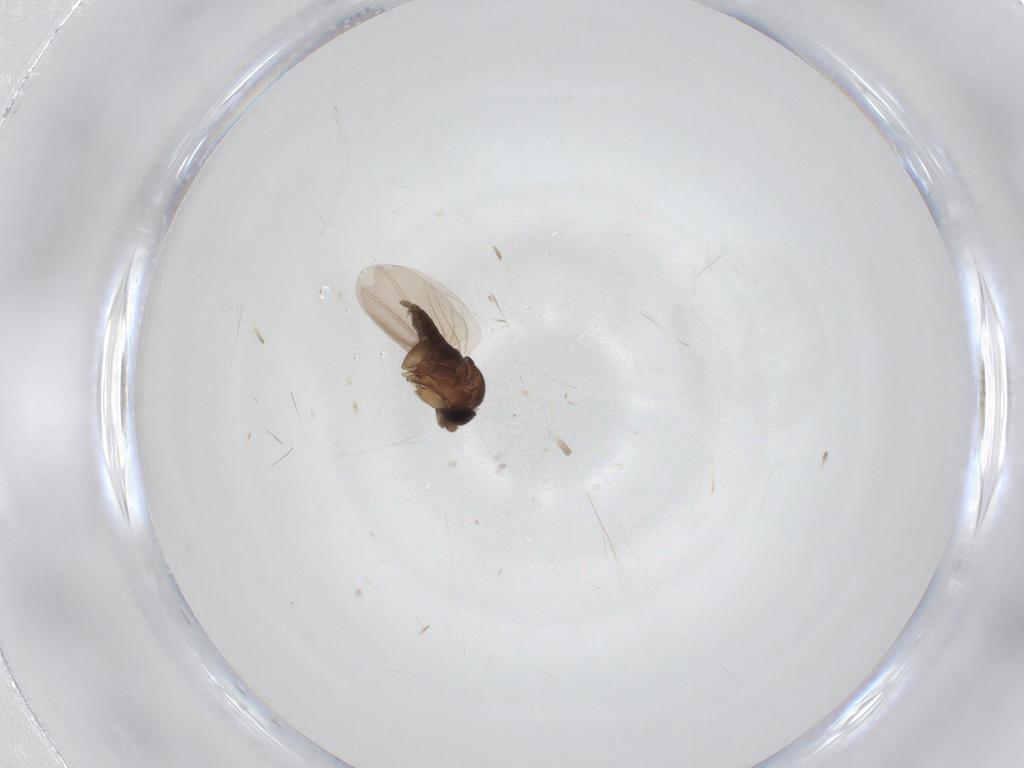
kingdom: Animalia
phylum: Arthropoda
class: Insecta
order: Diptera
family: Phoridae
